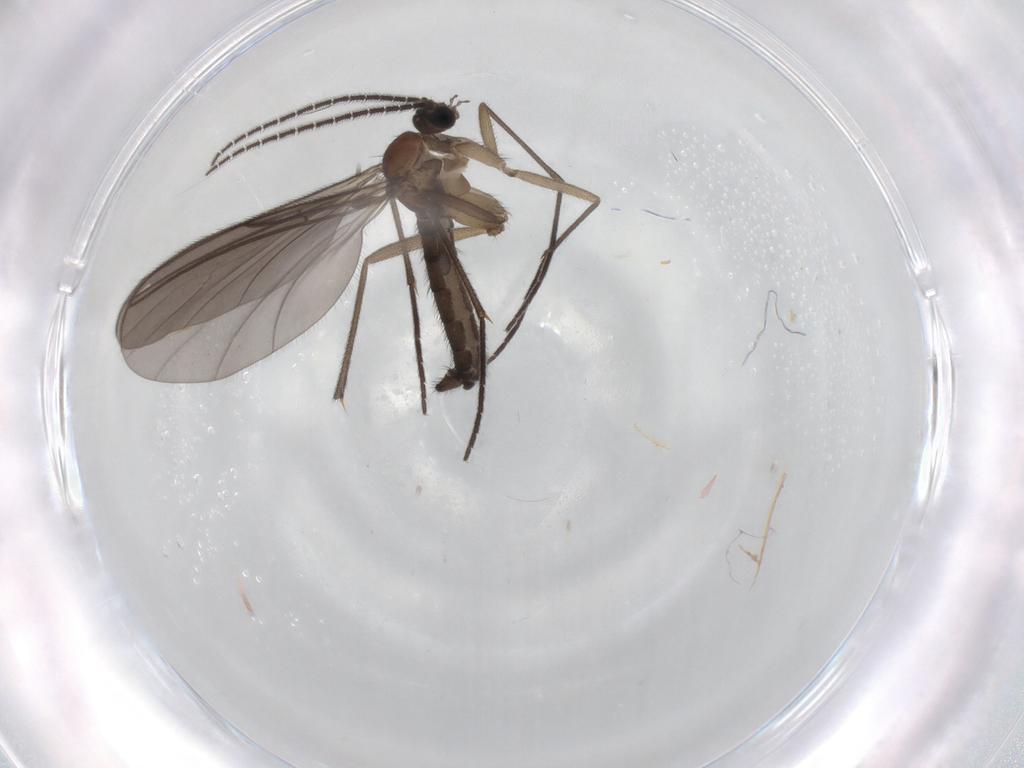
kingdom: Animalia
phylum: Arthropoda
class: Insecta
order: Diptera
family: Sciaridae
